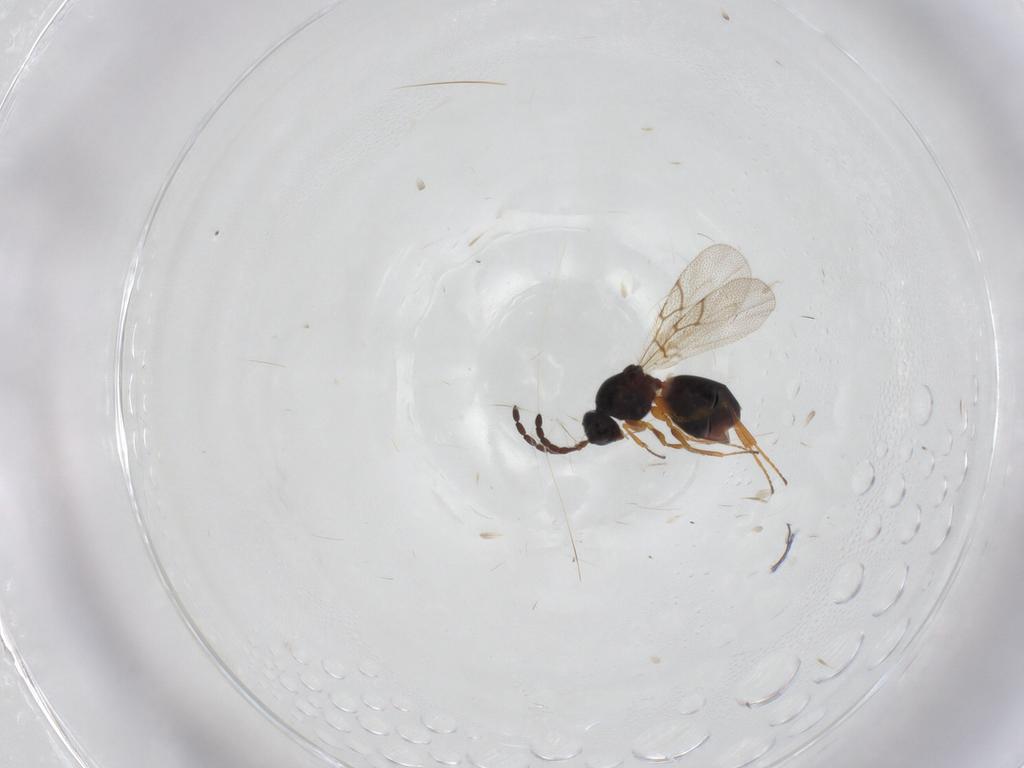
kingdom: Animalia
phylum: Arthropoda
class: Insecta
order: Hymenoptera
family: Figitidae
